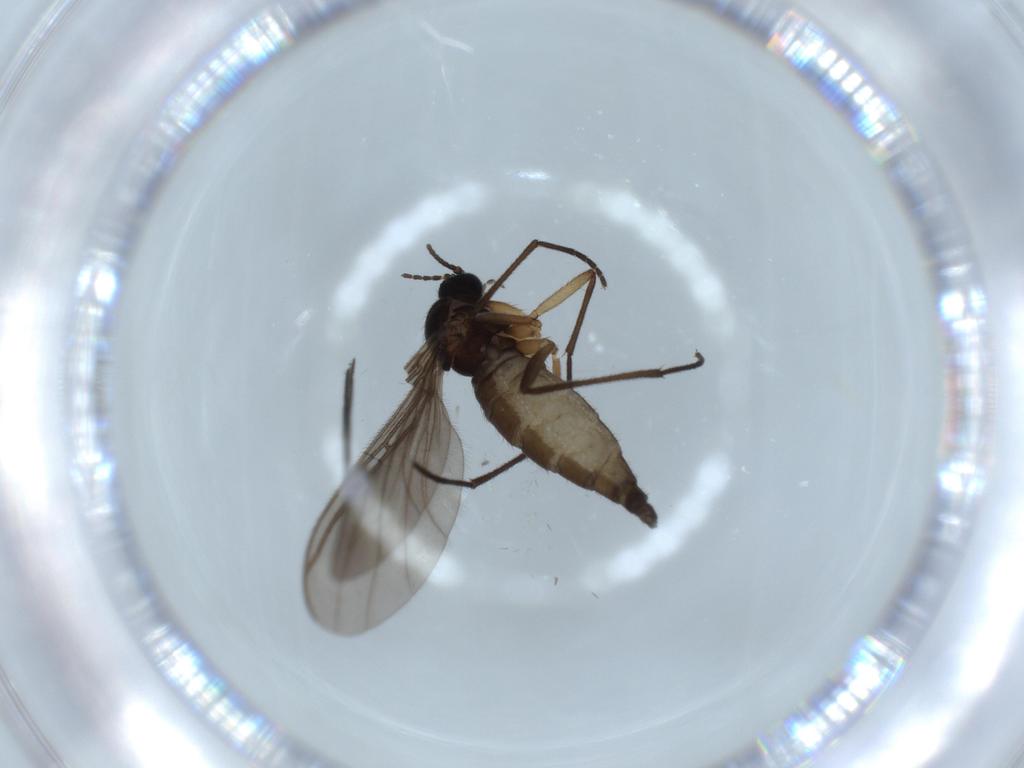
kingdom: Animalia
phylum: Arthropoda
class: Insecta
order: Diptera
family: Sciaridae
